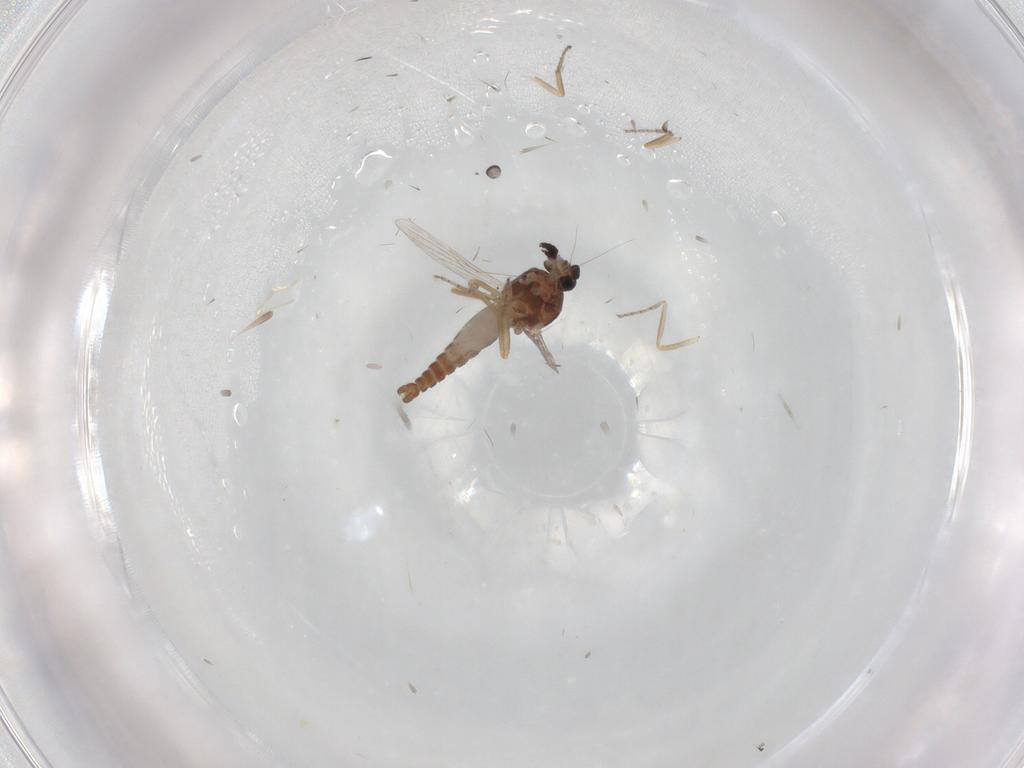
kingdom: Animalia
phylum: Arthropoda
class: Insecta
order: Diptera
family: Ceratopogonidae
